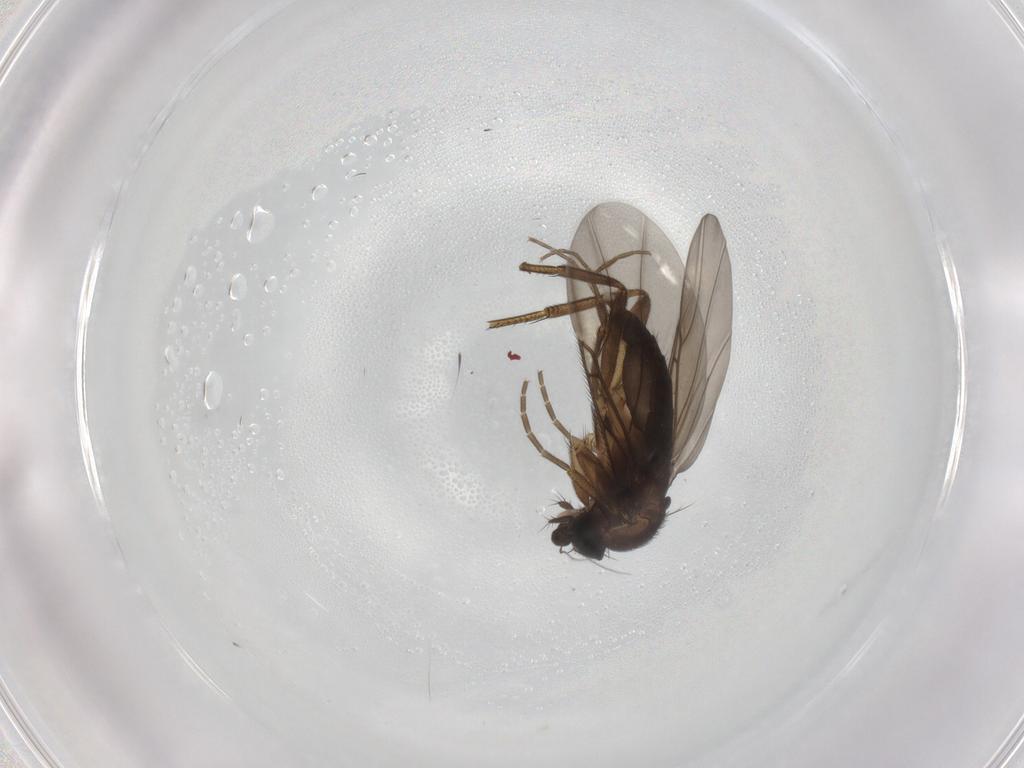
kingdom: Animalia
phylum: Arthropoda
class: Insecta
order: Diptera
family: Phoridae
